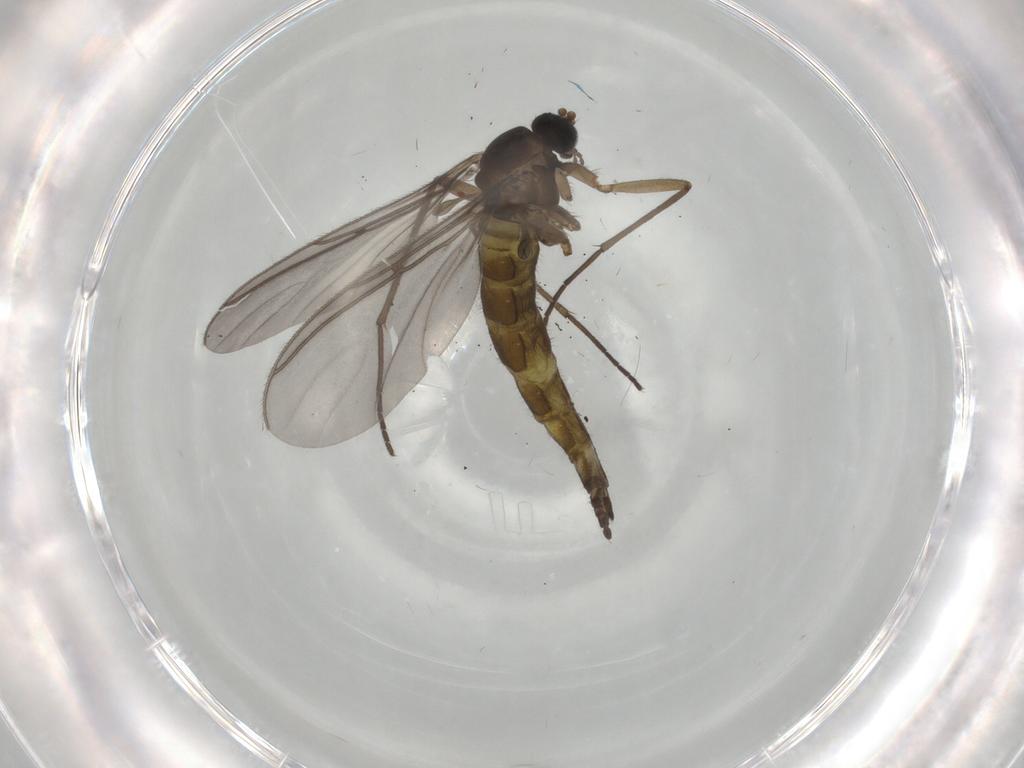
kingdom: Animalia
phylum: Arthropoda
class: Insecta
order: Diptera
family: Sciaridae
